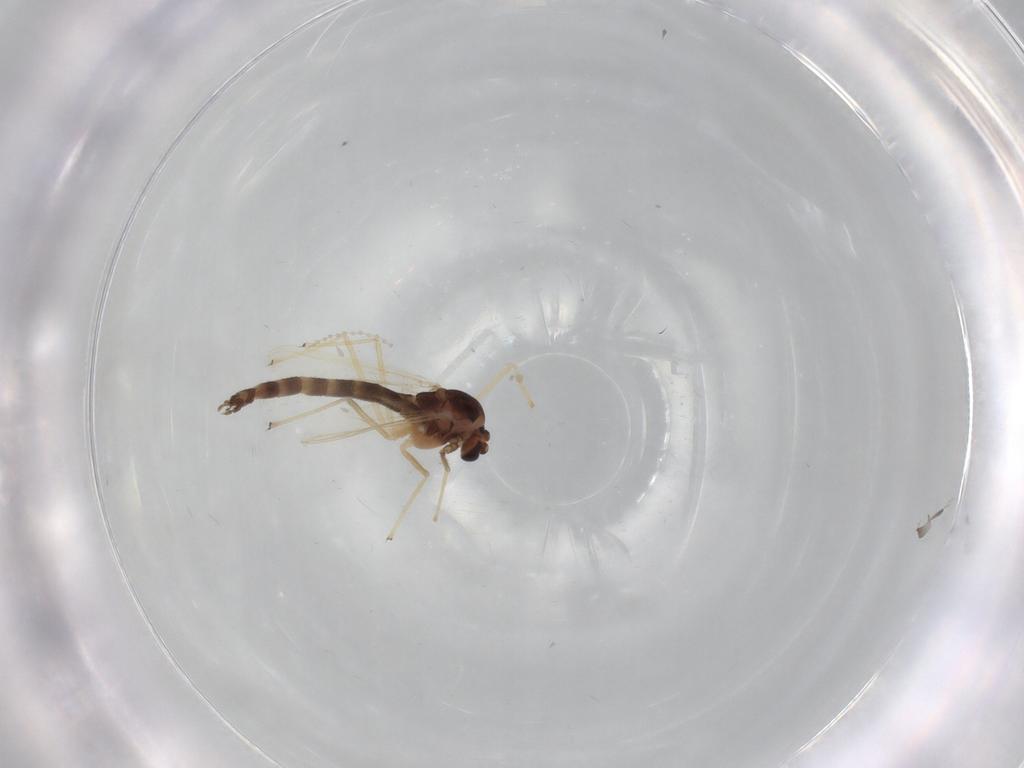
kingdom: Animalia
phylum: Arthropoda
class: Insecta
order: Diptera
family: Chironomidae
